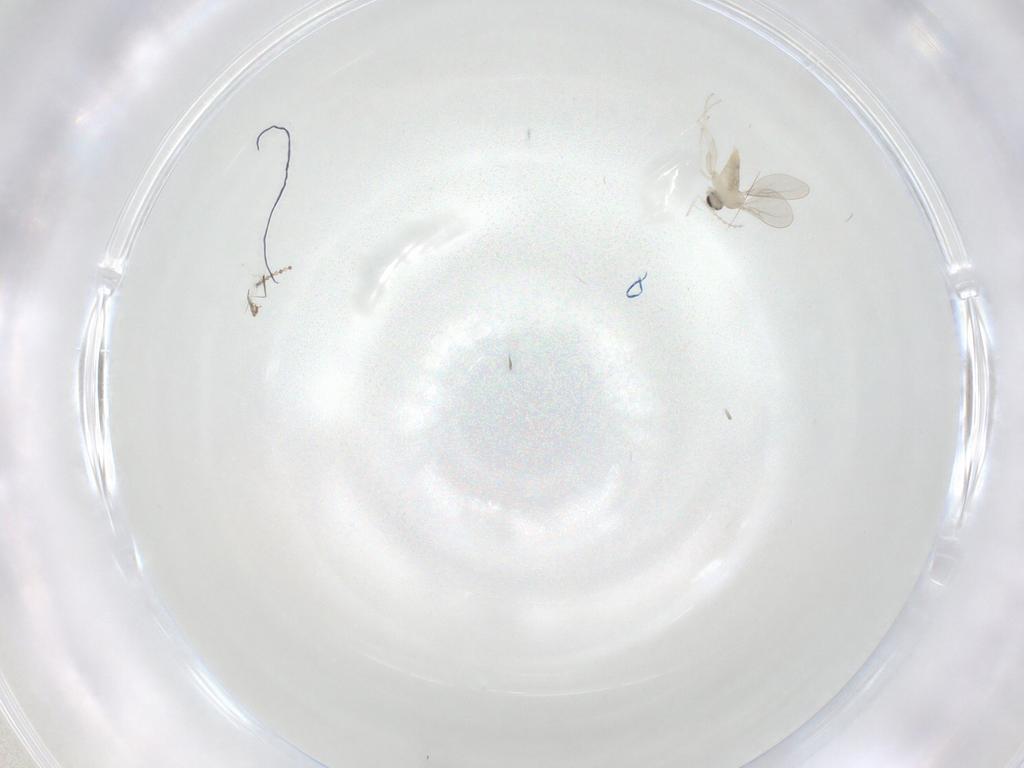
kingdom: Animalia
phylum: Arthropoda
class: Insecta
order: Diptera
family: Cecidomyiidae
